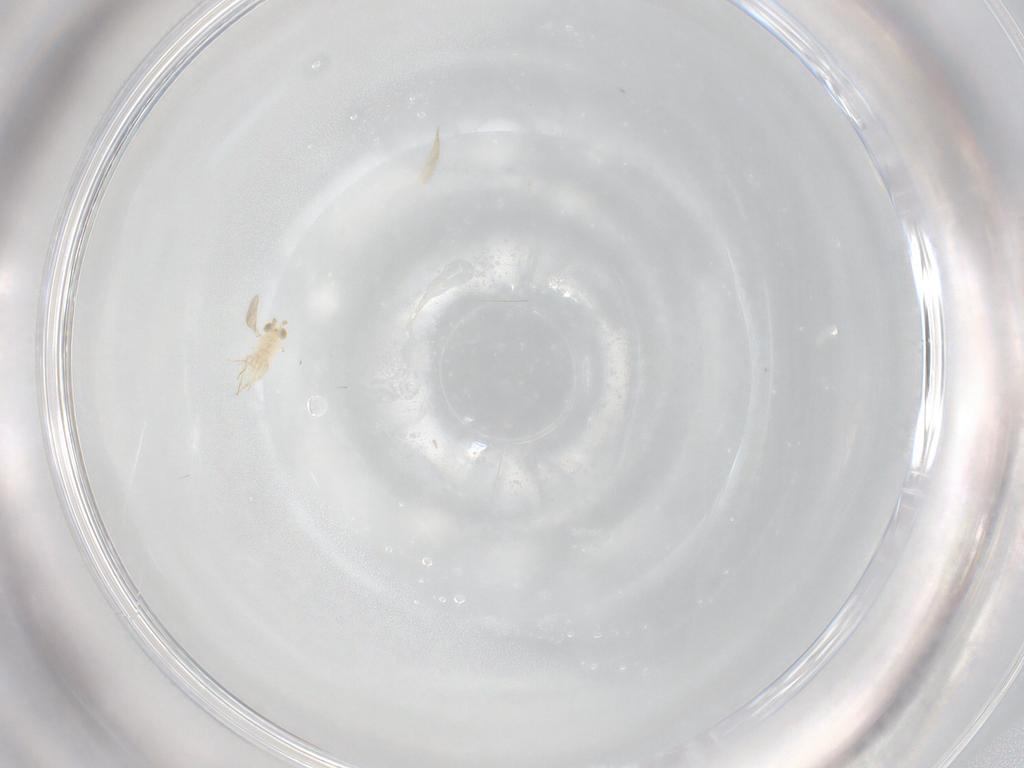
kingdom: Animalia
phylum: Arthropoda
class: Insecta
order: Hymenoptera
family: Aphelinidae
